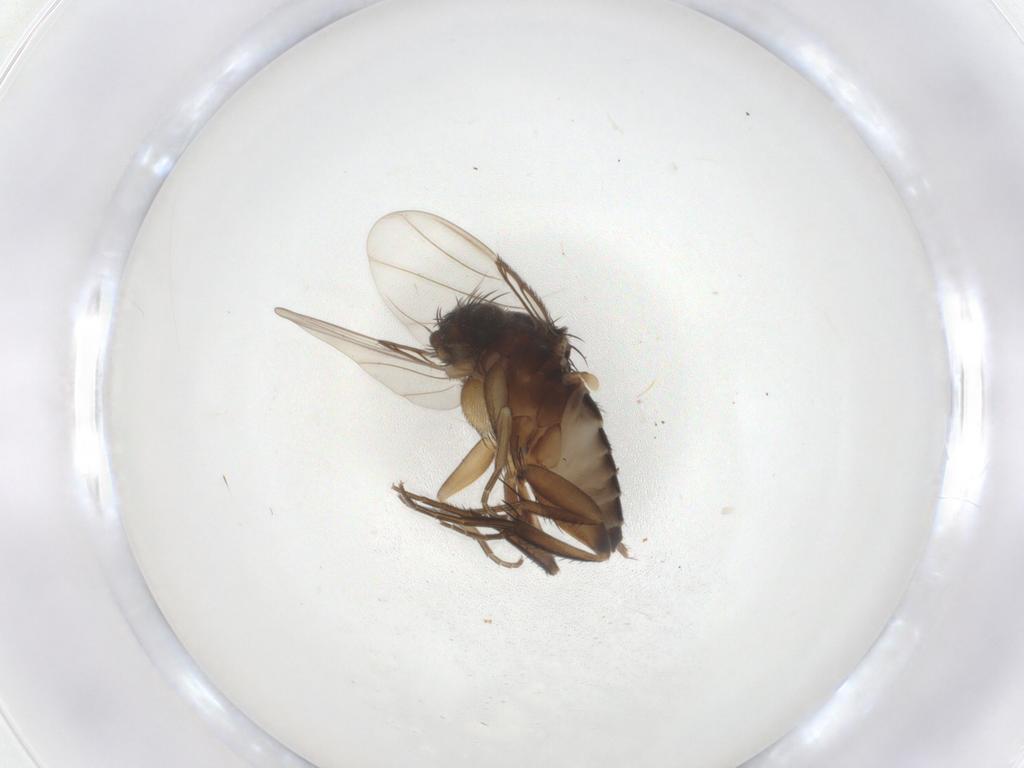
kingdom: Animalia
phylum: Arthropoda
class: Insecta
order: Diptera
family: Phoridae
